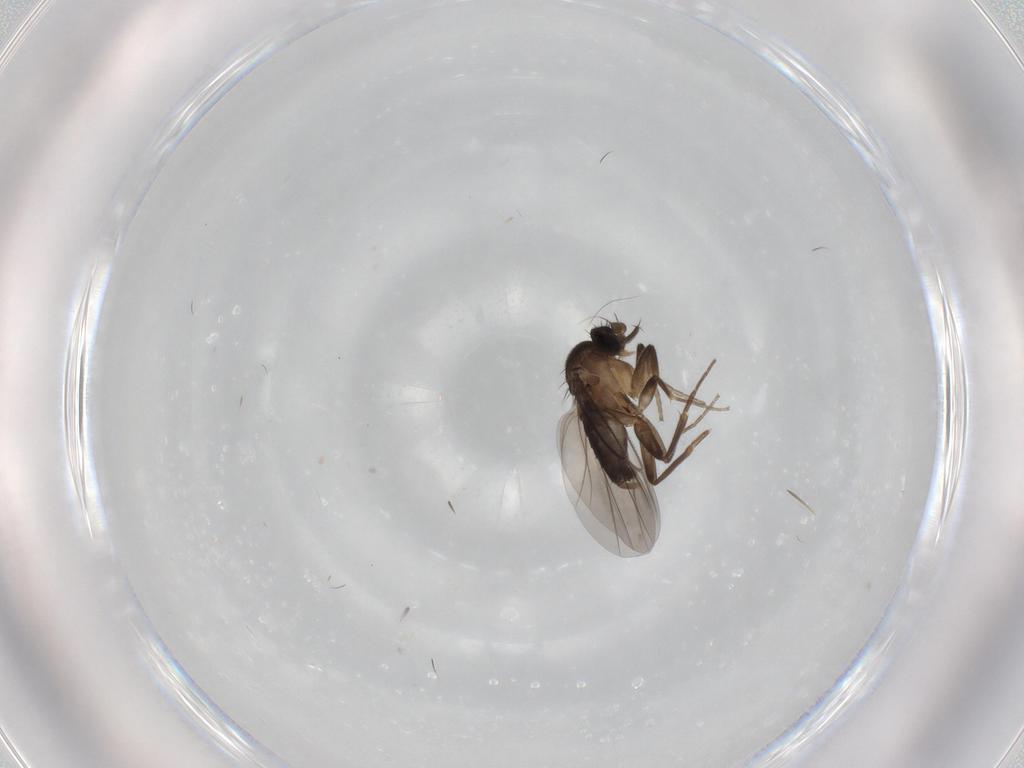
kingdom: Animalia
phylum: Arthropoda
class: Insecta
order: Diptera
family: Phoridae
